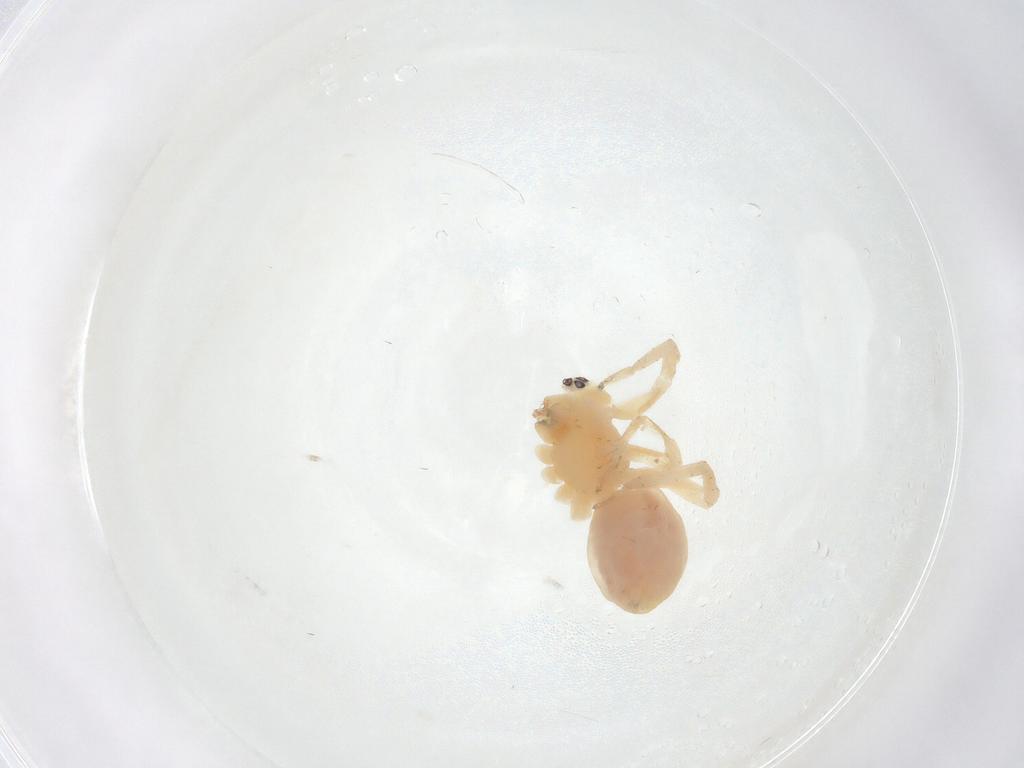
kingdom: Animalia
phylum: Arthropoda
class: Arachnida
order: Araneae
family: Anyphaenidae
